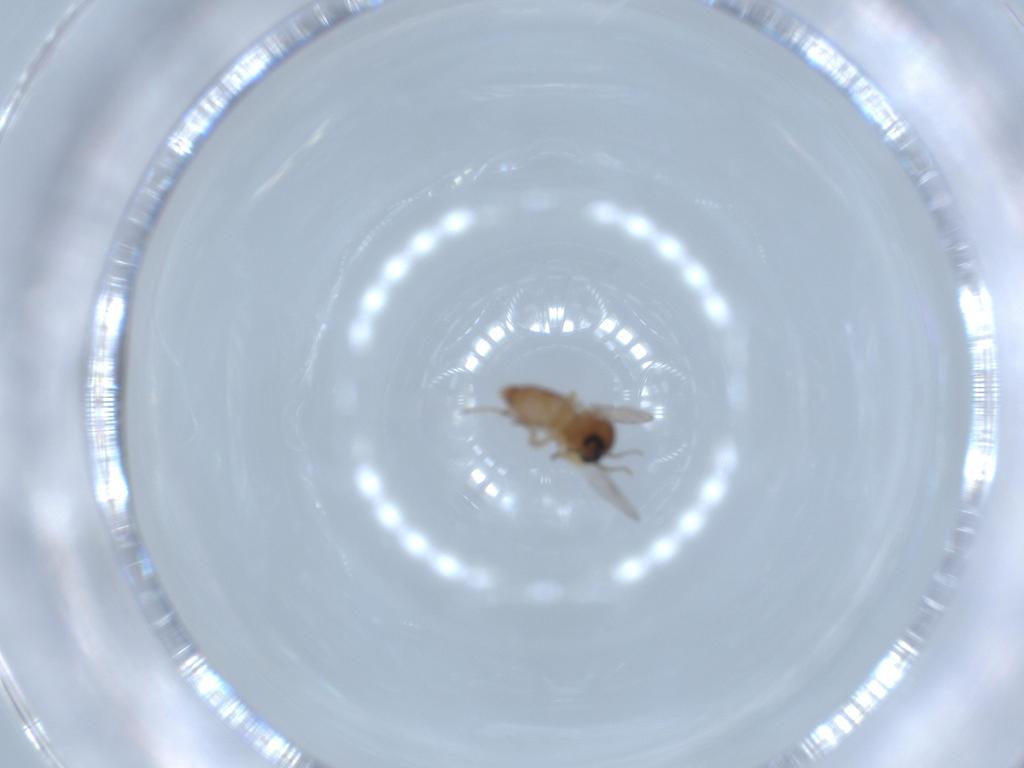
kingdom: Animalia
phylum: Arthropoda
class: Insecta
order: Diptera
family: Ceratopogonidae
